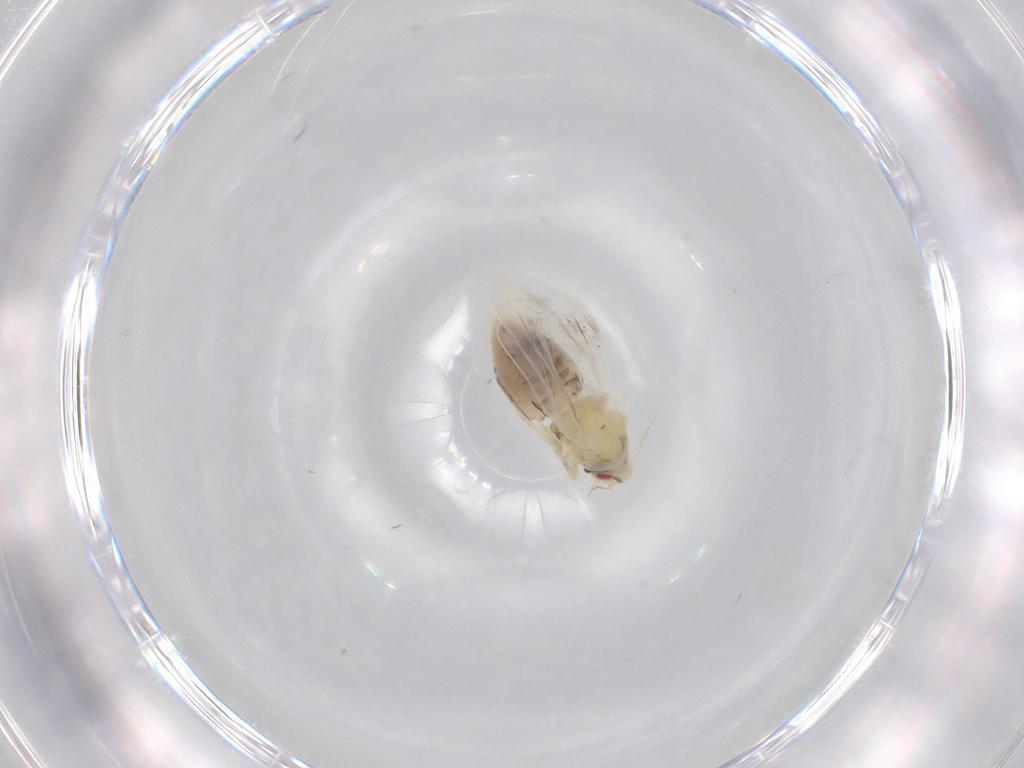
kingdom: Animalia
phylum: Arthropoda
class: Insecta
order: Hemiptera
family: Aleyrodidae
